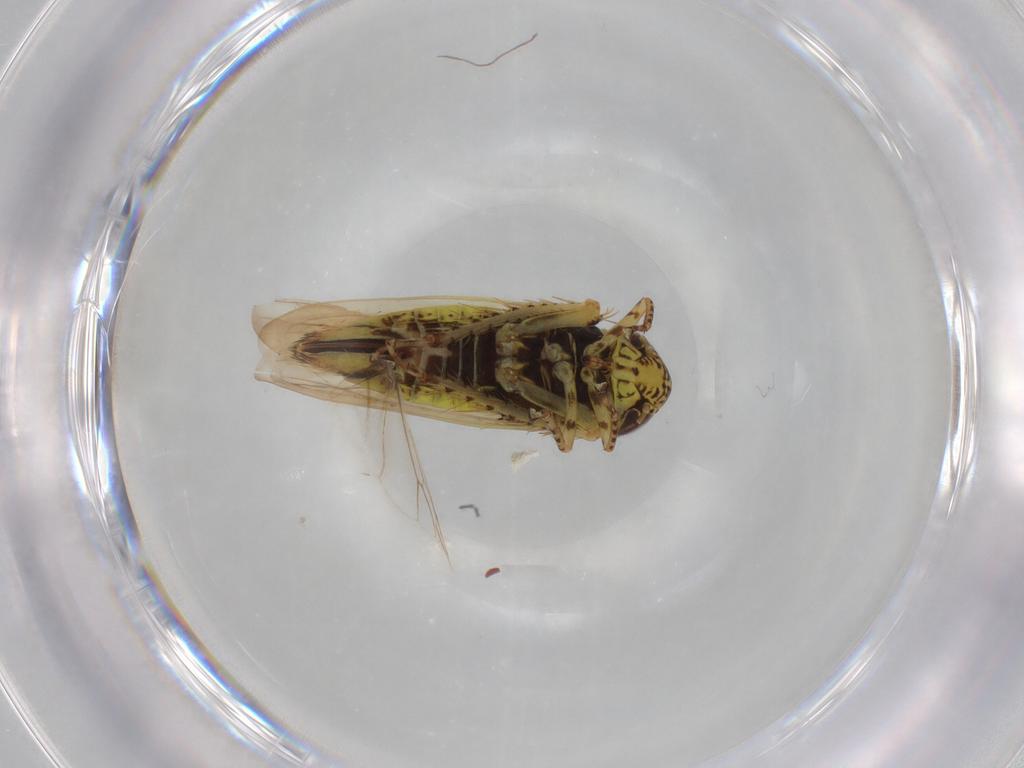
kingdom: Animalia
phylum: Arthropoda
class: Insecta
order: Hemiptera
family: Cicadellidae
